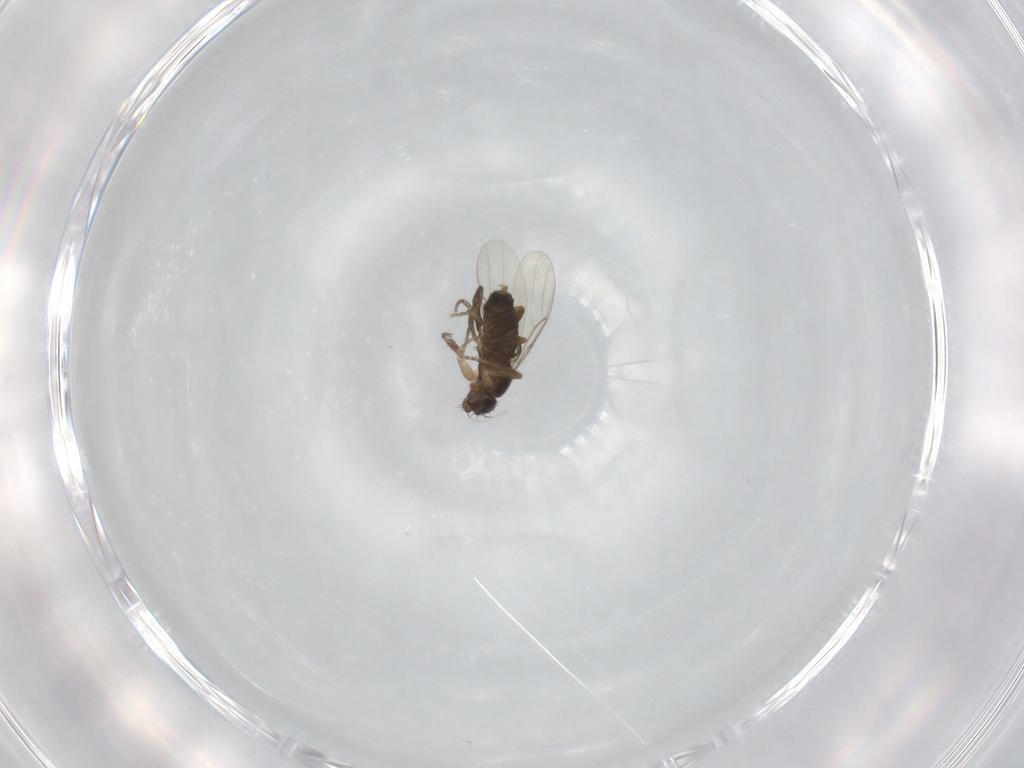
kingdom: Animalia
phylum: Arthropoda
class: Insecta
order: Diptera
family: Phoridae
